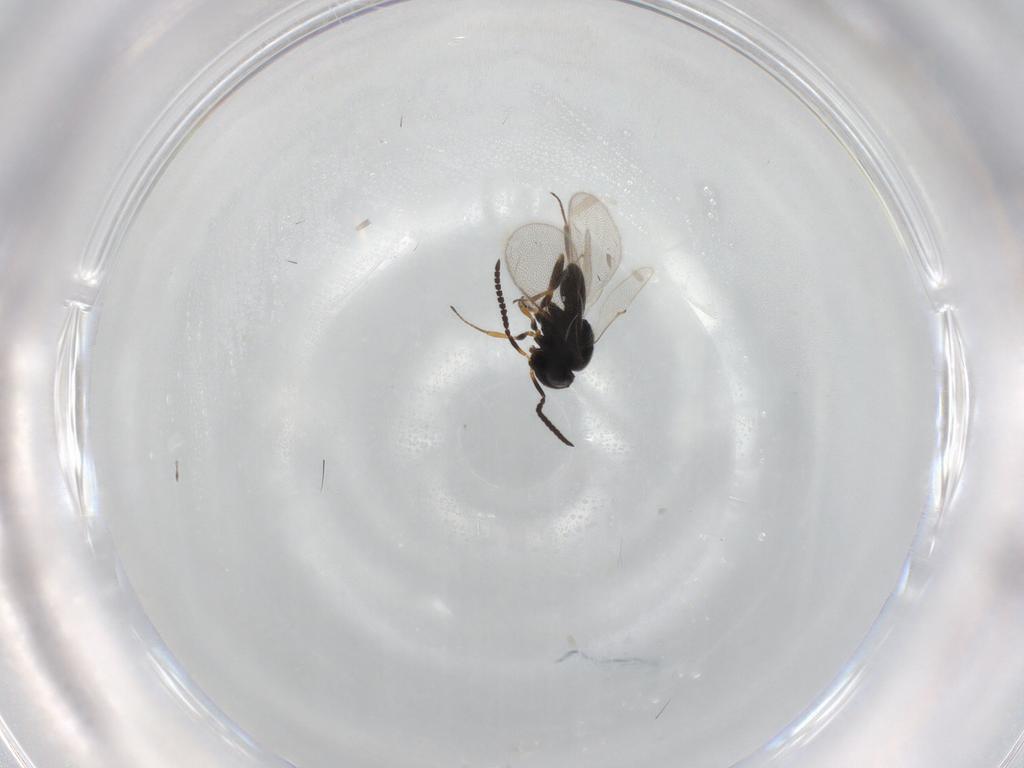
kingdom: Animalia
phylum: Arthropoda
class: Insecta
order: Hymenoptera
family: Scelionidae
